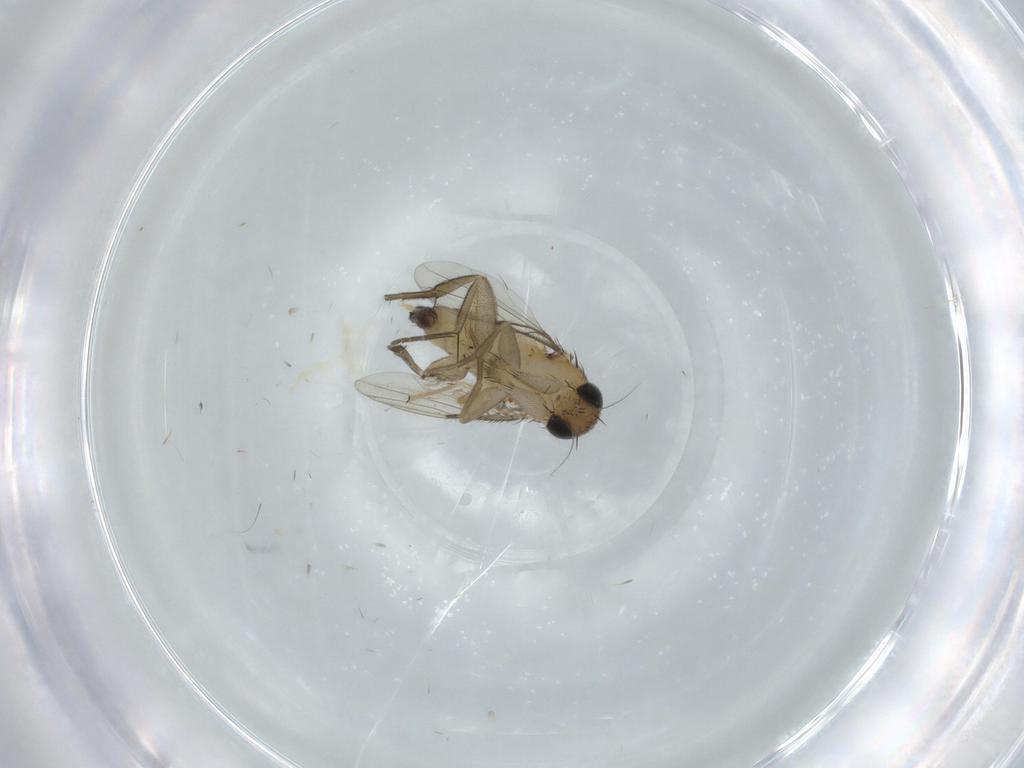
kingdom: Animalia
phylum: Arthropoda
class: Insecta
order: Diptera
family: Phoridae
